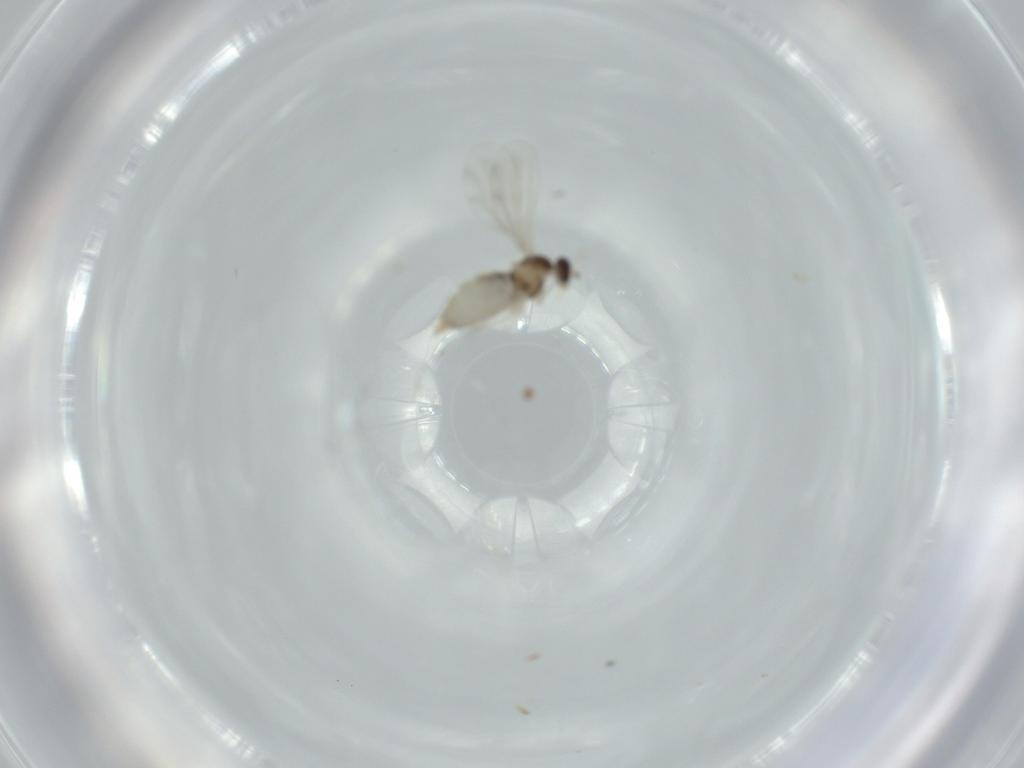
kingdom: Animalia
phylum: Arthropoda
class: Insecta
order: Diptera
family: Cecidomyiidae
